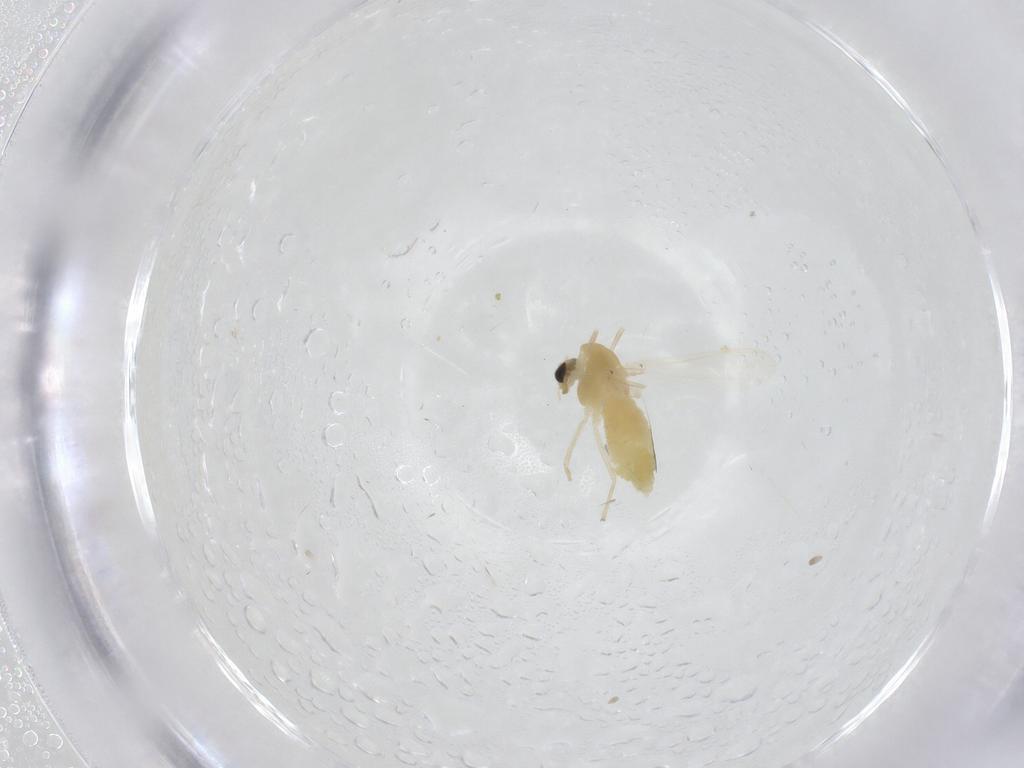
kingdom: Animalia
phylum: Arthropoda
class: Insecta
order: Diptera
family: Chironomidae
